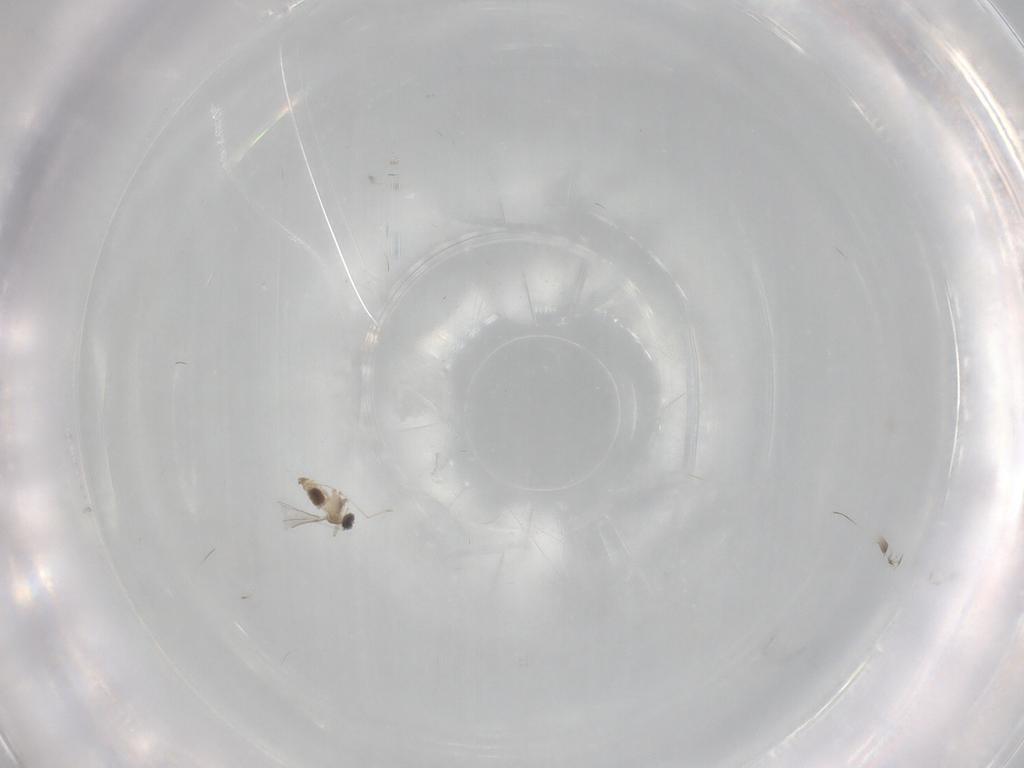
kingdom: Animalia
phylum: Arthropoda
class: Insecta
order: Diptera
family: Cecidomyiidae
